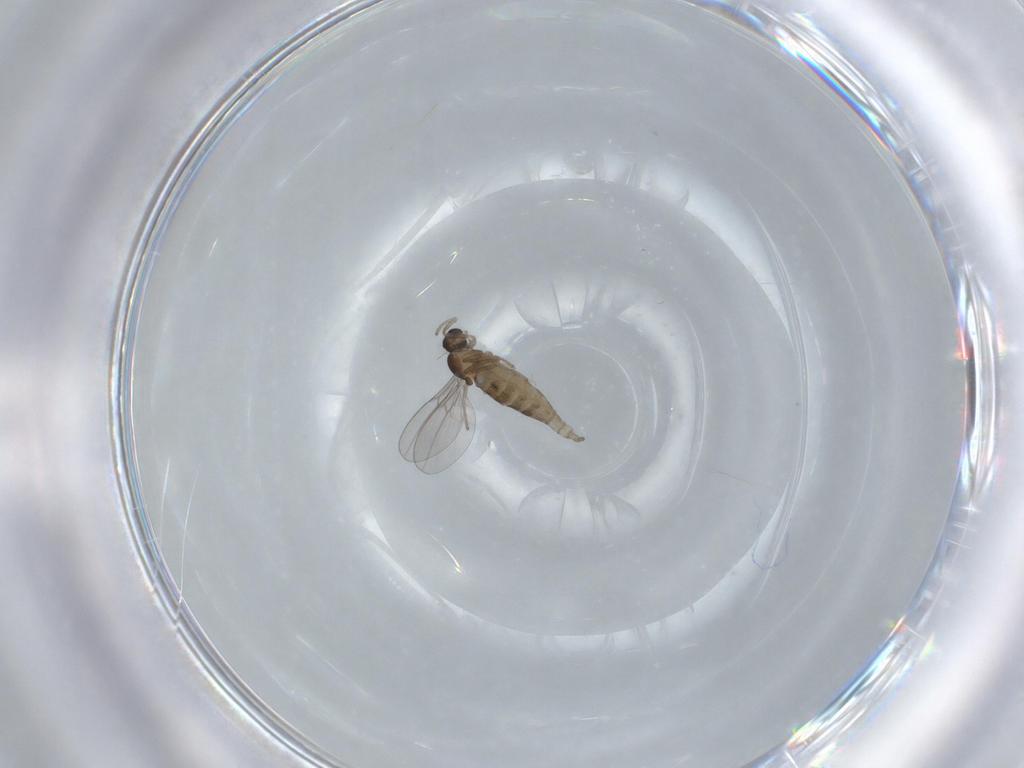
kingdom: Animalia
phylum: Arthropoda
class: Insecta
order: Diptera
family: Cecidomyiidae
